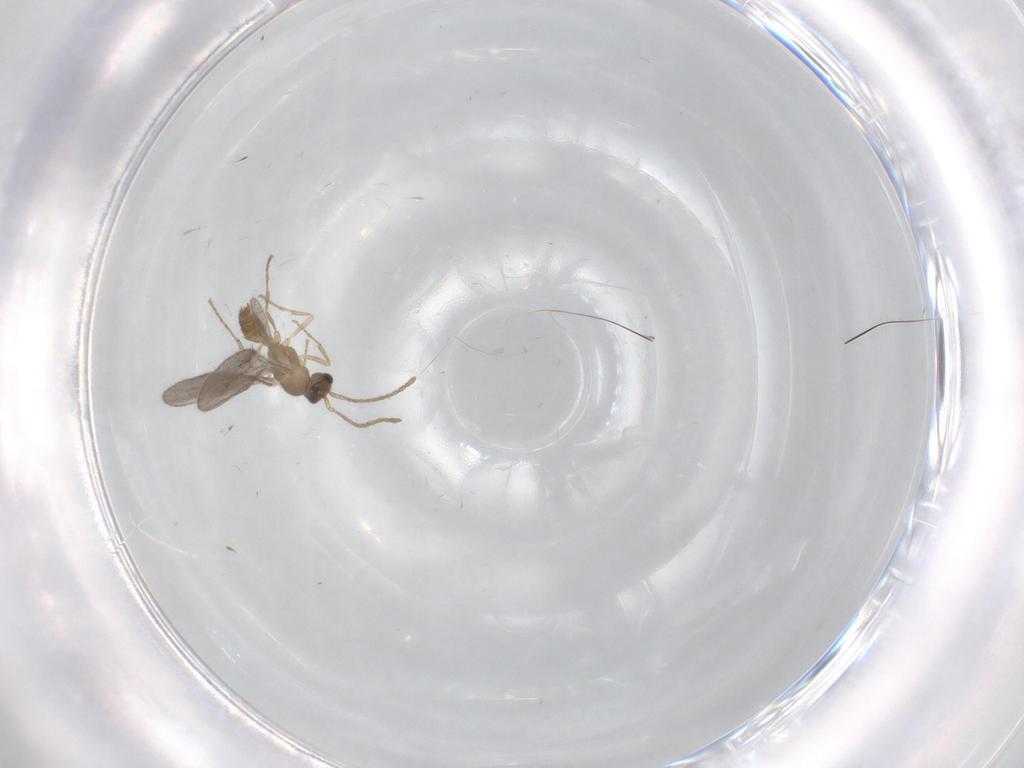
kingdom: Animalia
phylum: Arthropoda
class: Insecta
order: Hymenoptera
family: Formicidae
